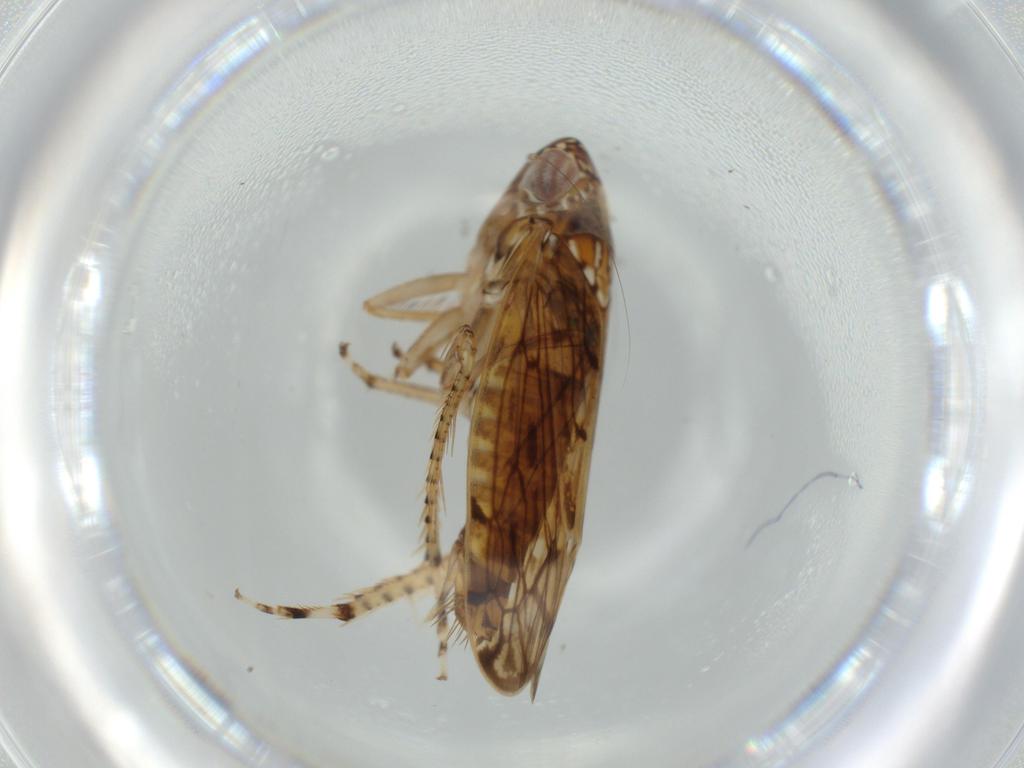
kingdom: Animalia
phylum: Arthropoda
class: Insecta
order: Hemiptera
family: Cicadellidae
